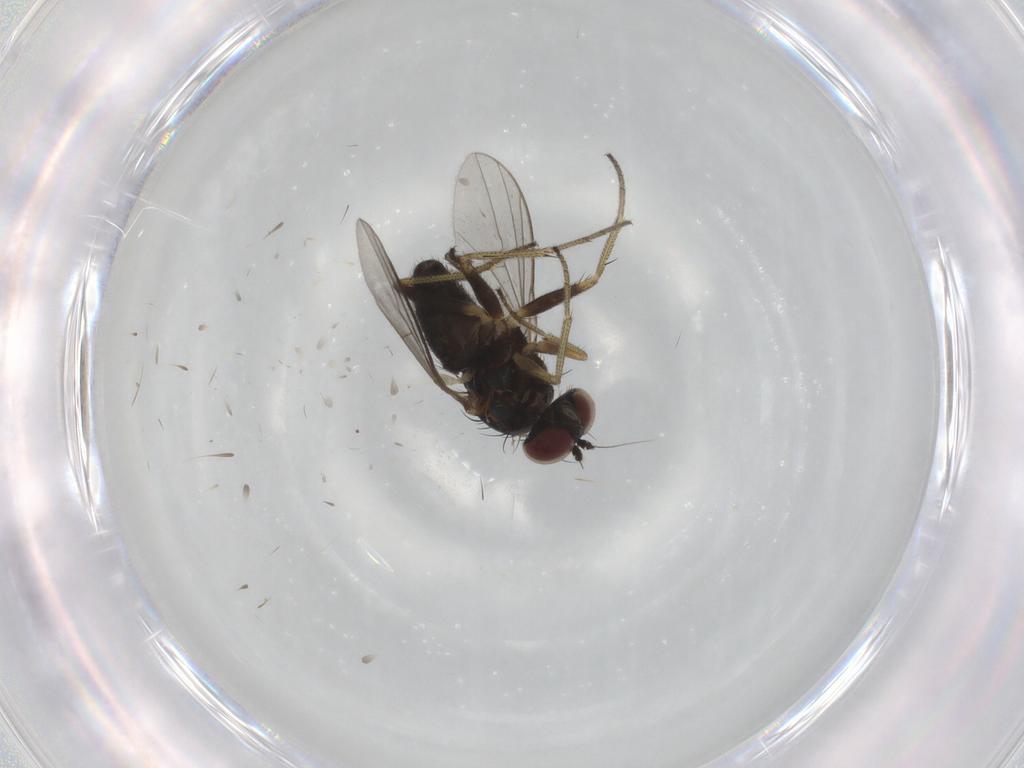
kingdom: Animalia
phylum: Arthropoda
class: Insecta
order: Diptera
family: Dolichopodidae
